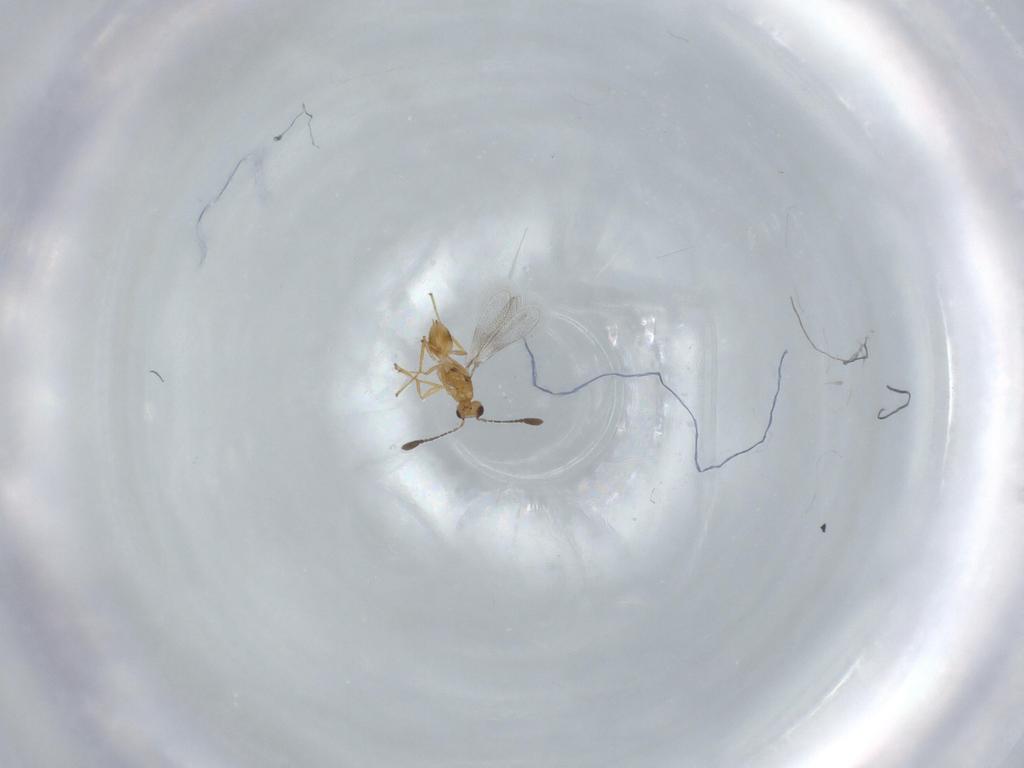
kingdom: Animalia
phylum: Arthropoda
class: Insecta
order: Hymenoptera
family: Mymaridae
